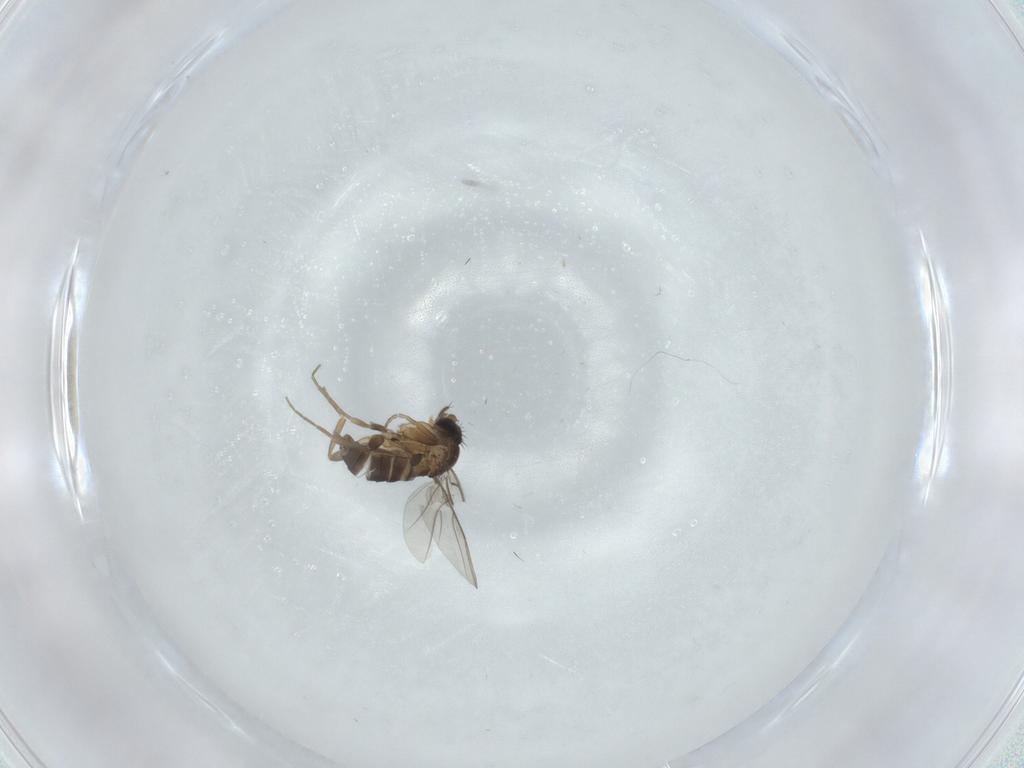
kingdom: Animalia
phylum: Arthropoda
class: Insecta
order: Diptera
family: Phoridae
